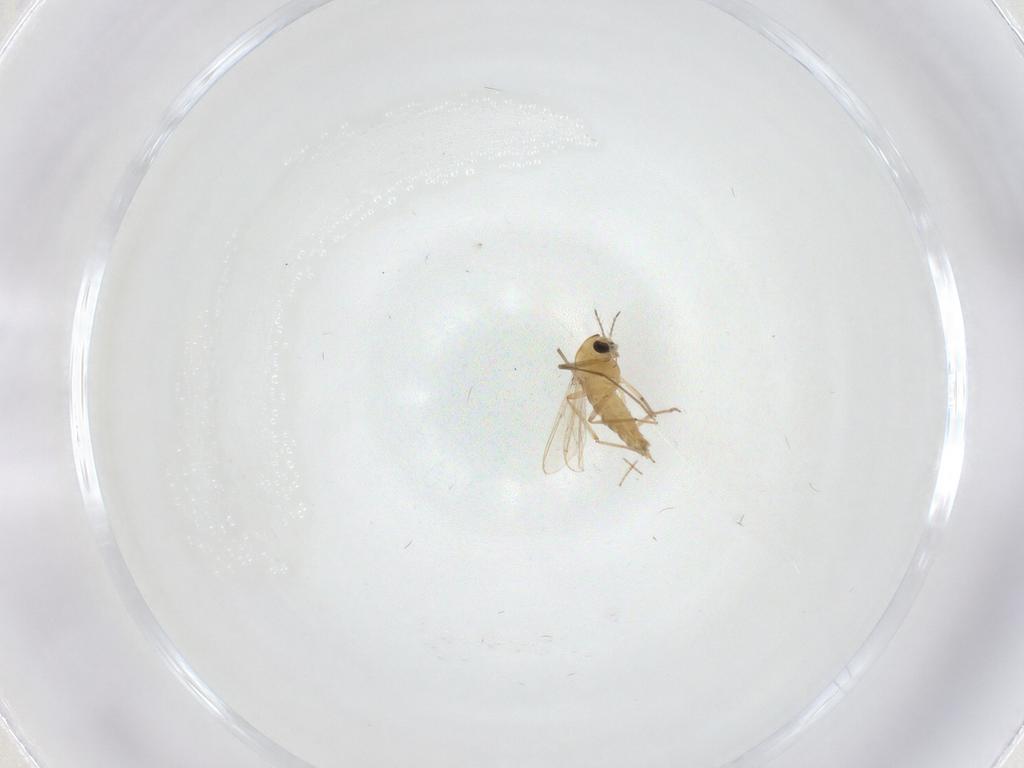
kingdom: Animalia
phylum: Arthropoda
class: Insecta
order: Diptera
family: Chironomidae
